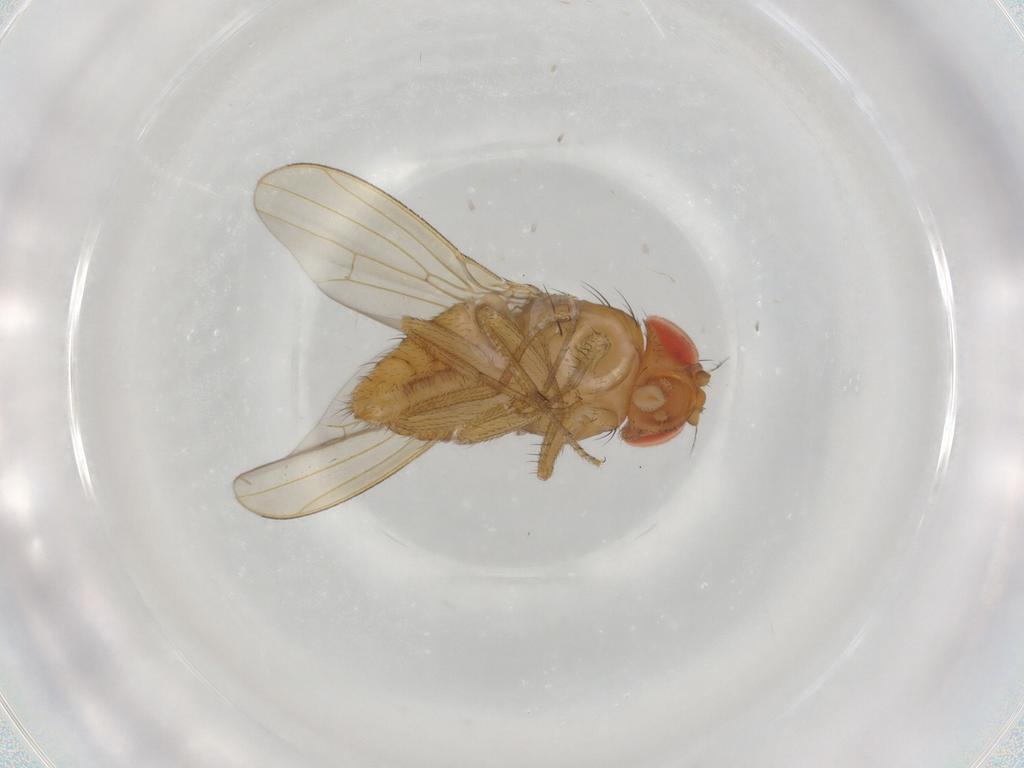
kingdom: Animalia
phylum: Arthropoda
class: Insecta
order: Diptera
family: Drosophilidae
